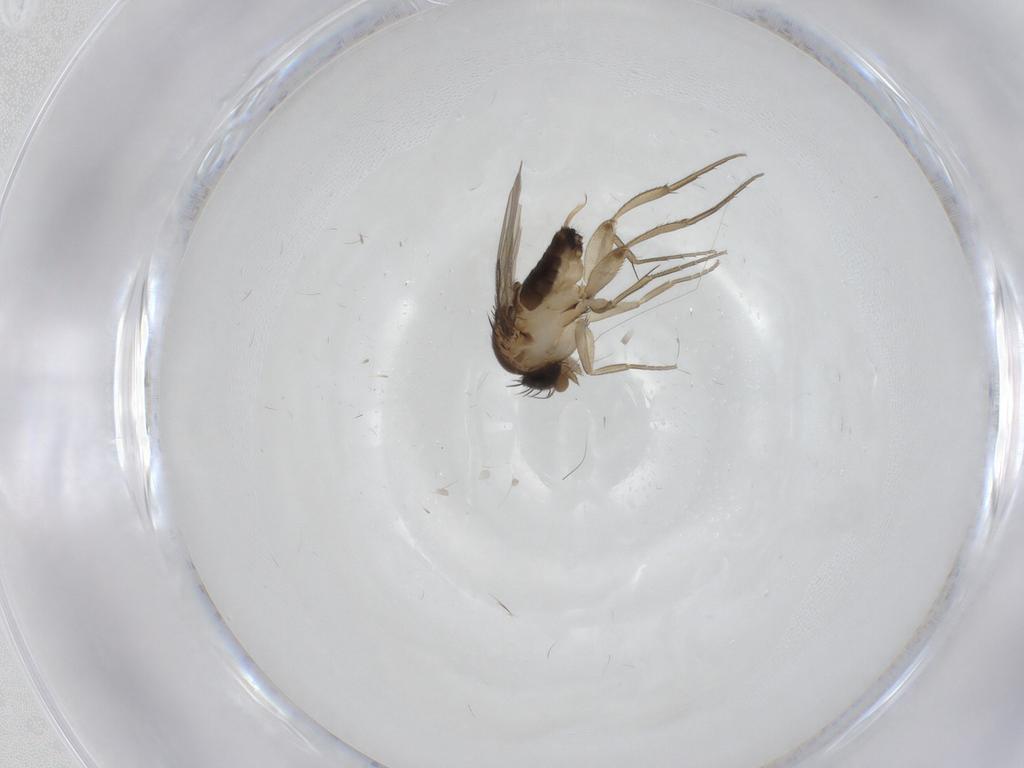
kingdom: Animalia
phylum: Arthropoda
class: Insecta
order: Diptera
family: Phoridae
